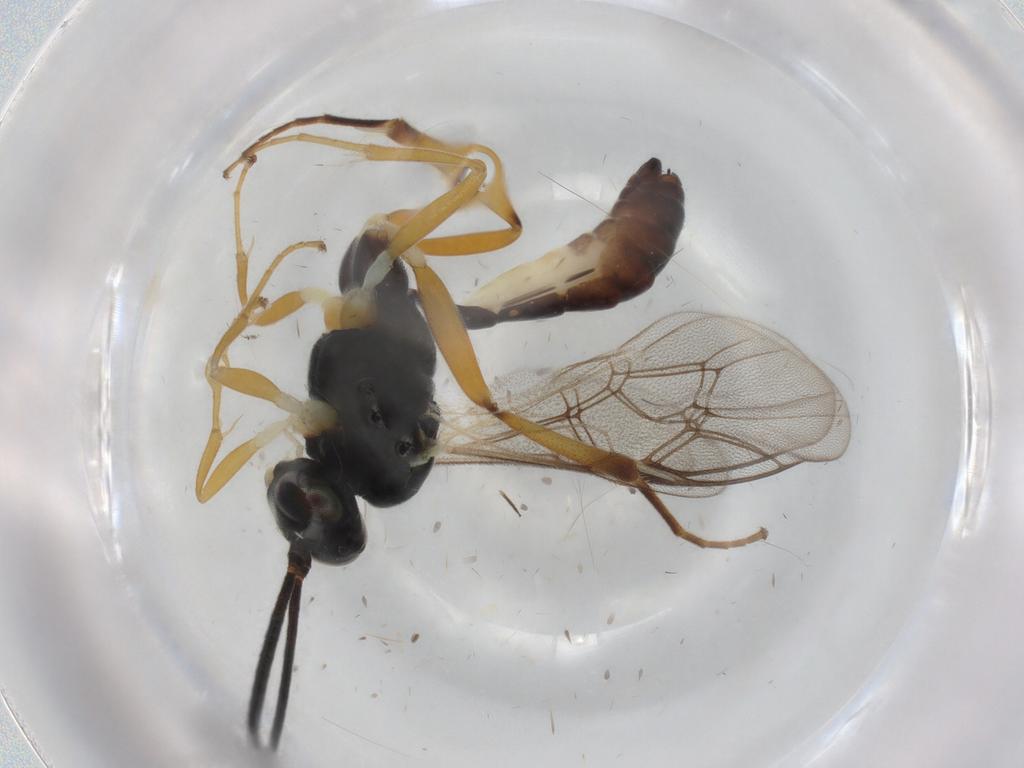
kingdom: Animalia
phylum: Arthropoda
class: Insecta
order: Hymenoptera
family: Ichneumonidae
